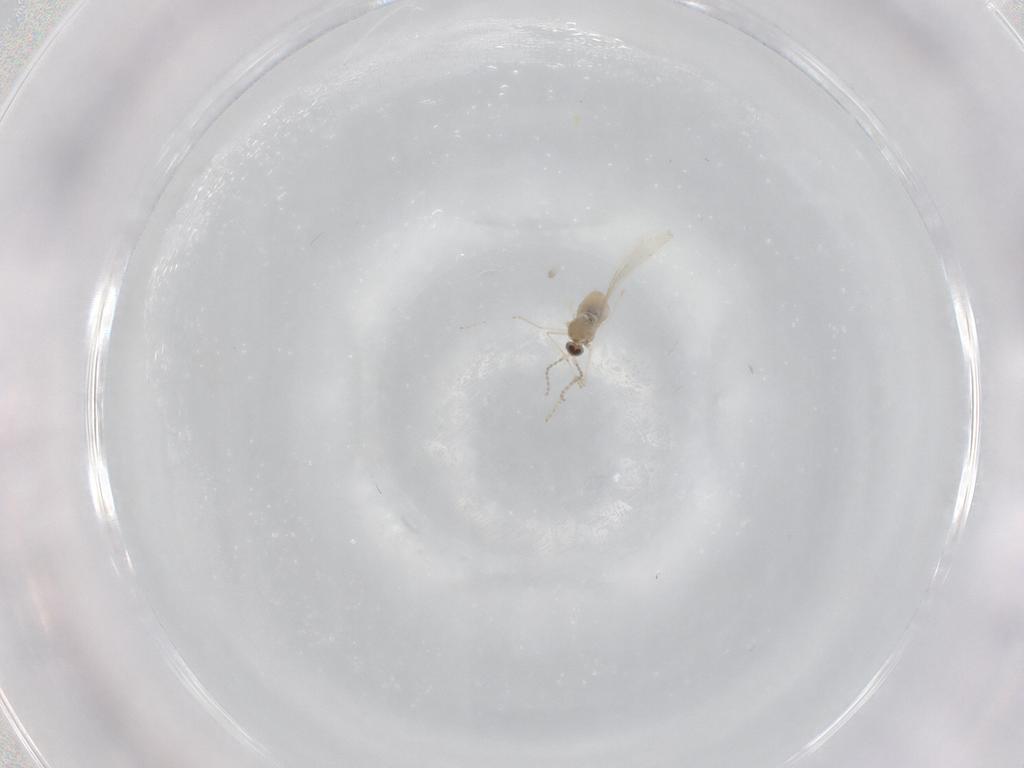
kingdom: Animalia
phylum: Arthropoda
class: Insecta
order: Diptera
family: Cecidomyiidae
